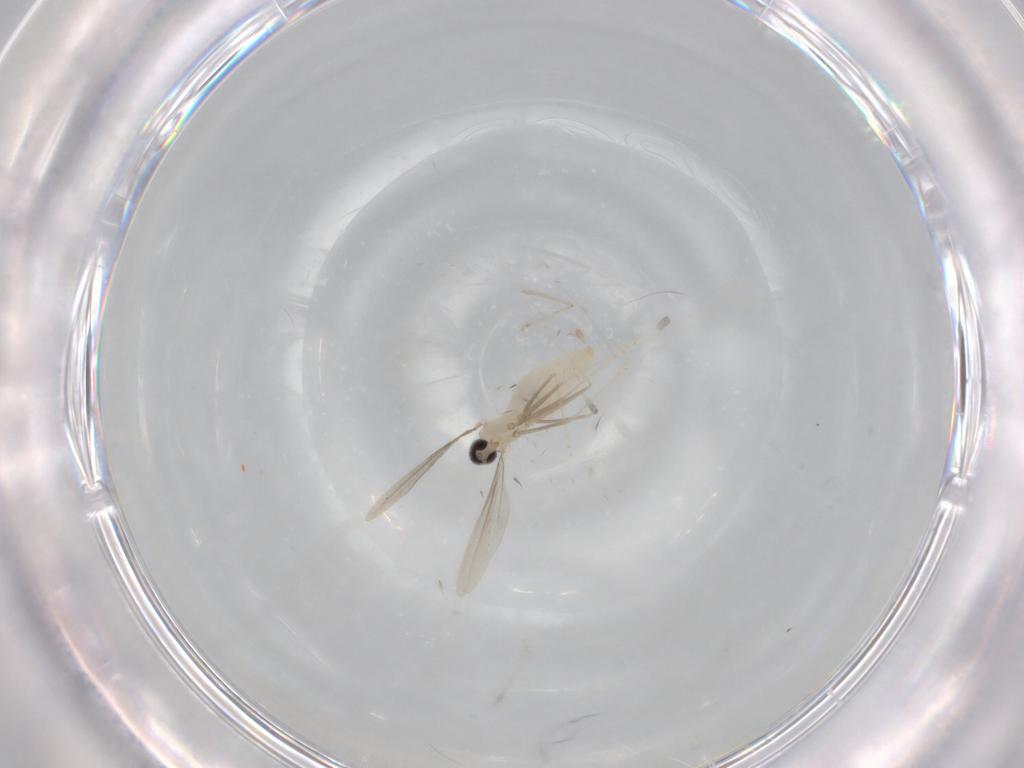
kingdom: Animalia
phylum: Arthropoda
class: Insecta
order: Diptera
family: Cecidomyiidae
